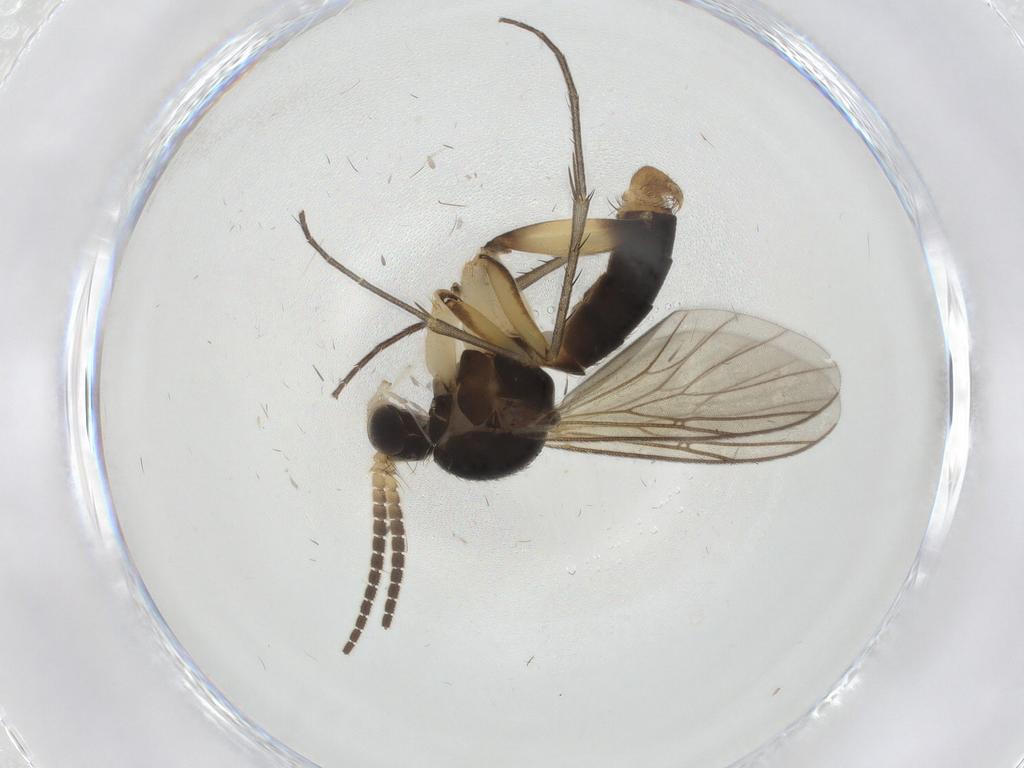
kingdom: Animalia
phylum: Arthropoda
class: Insecta
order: Diptera
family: Mycetophilidae
